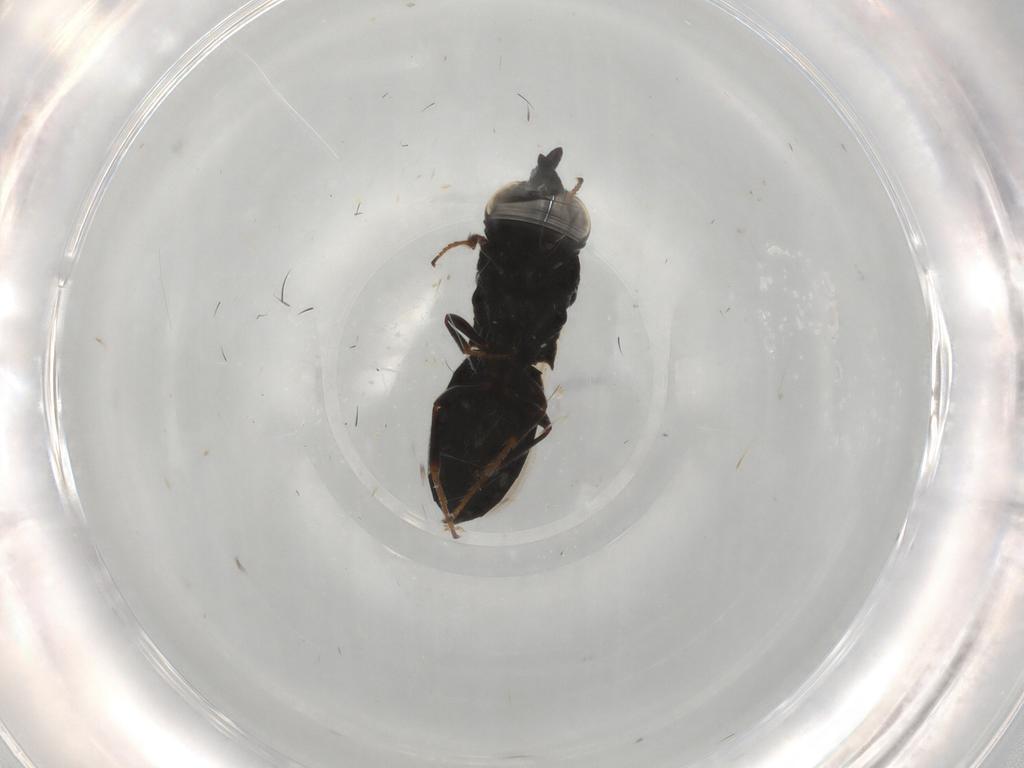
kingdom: Animalia
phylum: Arthropoda
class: Insecta
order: Hymenoptera
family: Scelionidae
